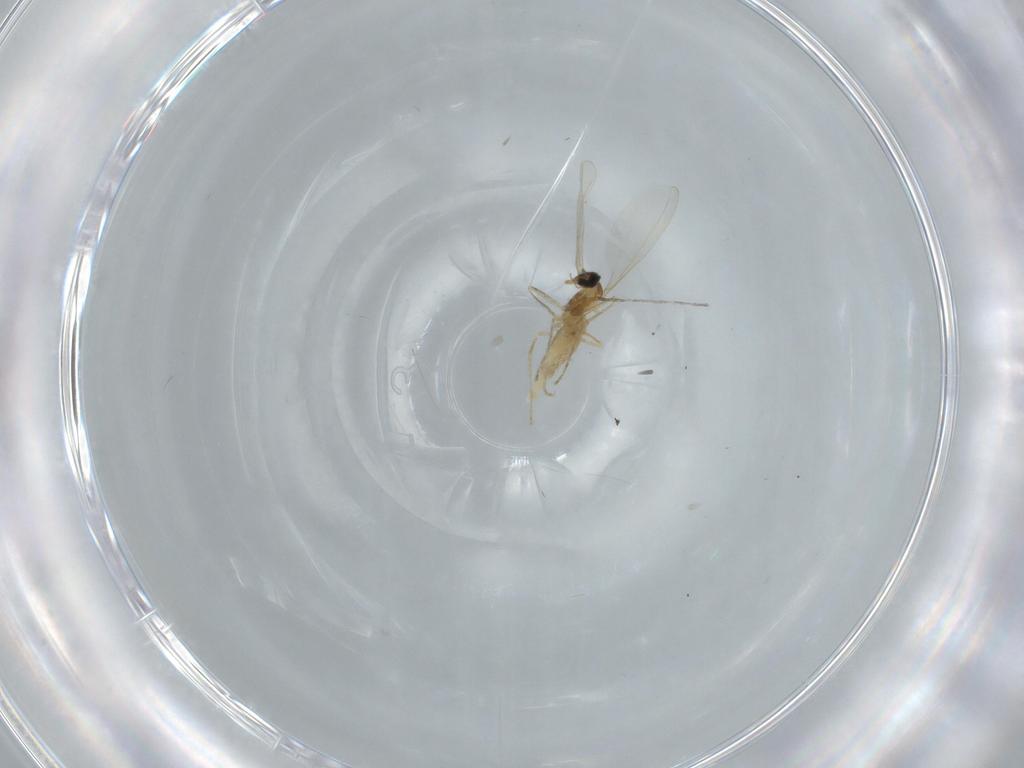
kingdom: Animalia
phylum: Arthropoda
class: Insecta
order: Diptera
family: Cecidomyiidae
